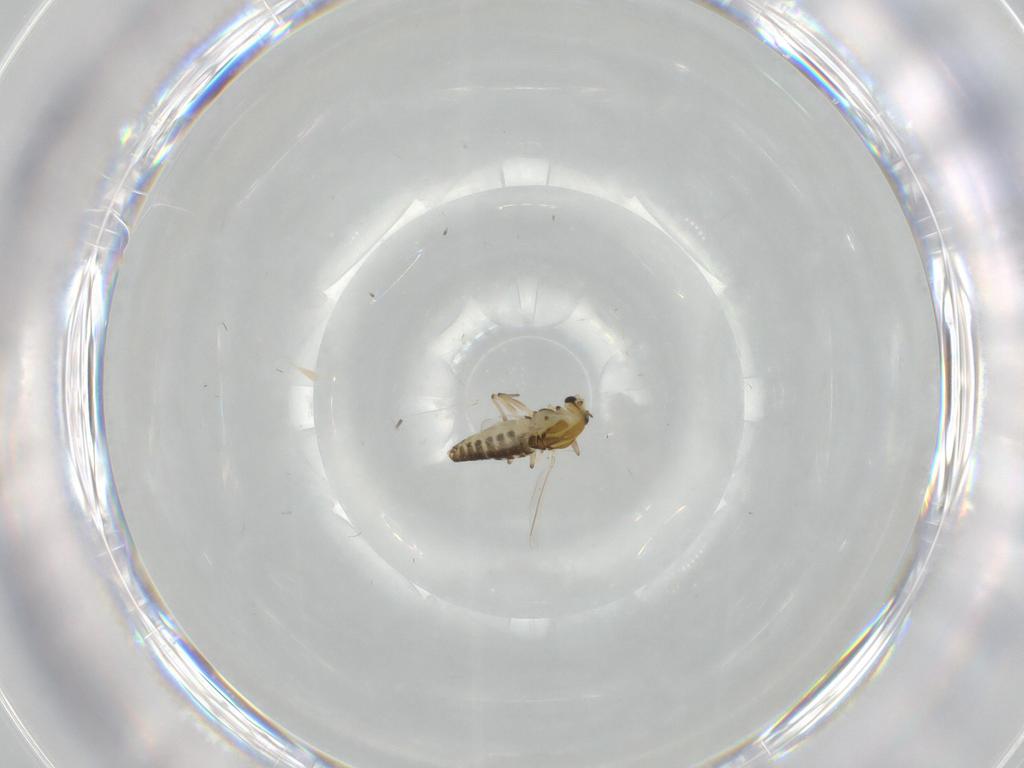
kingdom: Animalia
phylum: Arthropoda
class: Insecta
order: Diptera
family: Chironomidae
